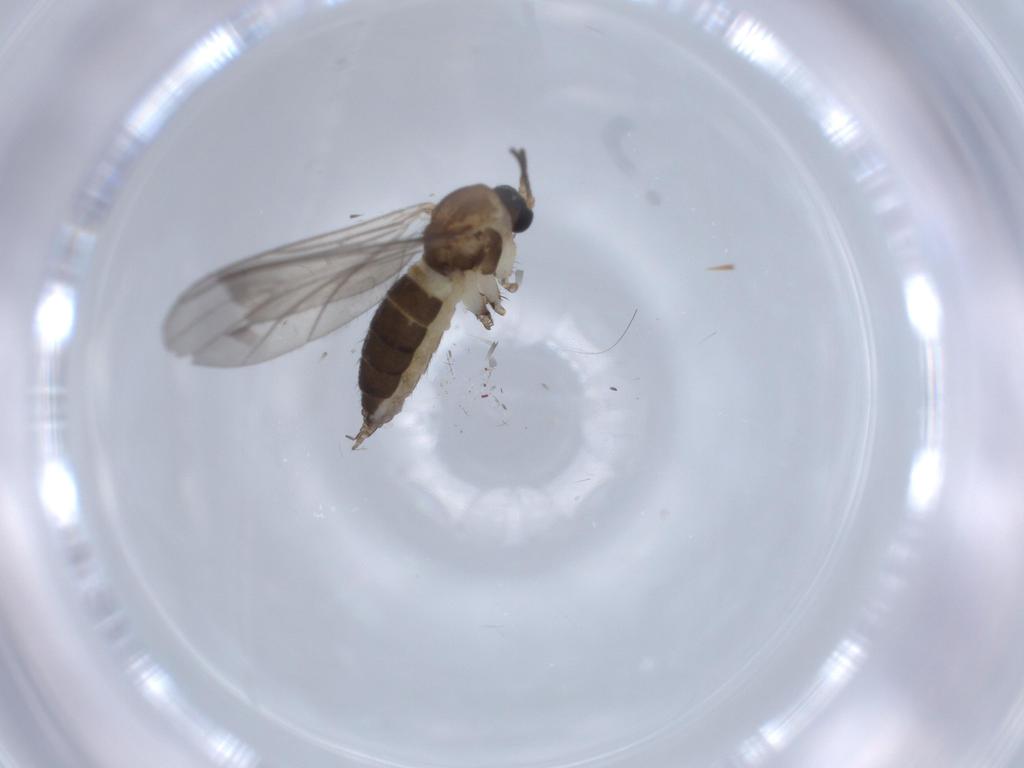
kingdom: Animalia
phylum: Arthropoda
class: Insecta
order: Diptera
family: Sciaridae
